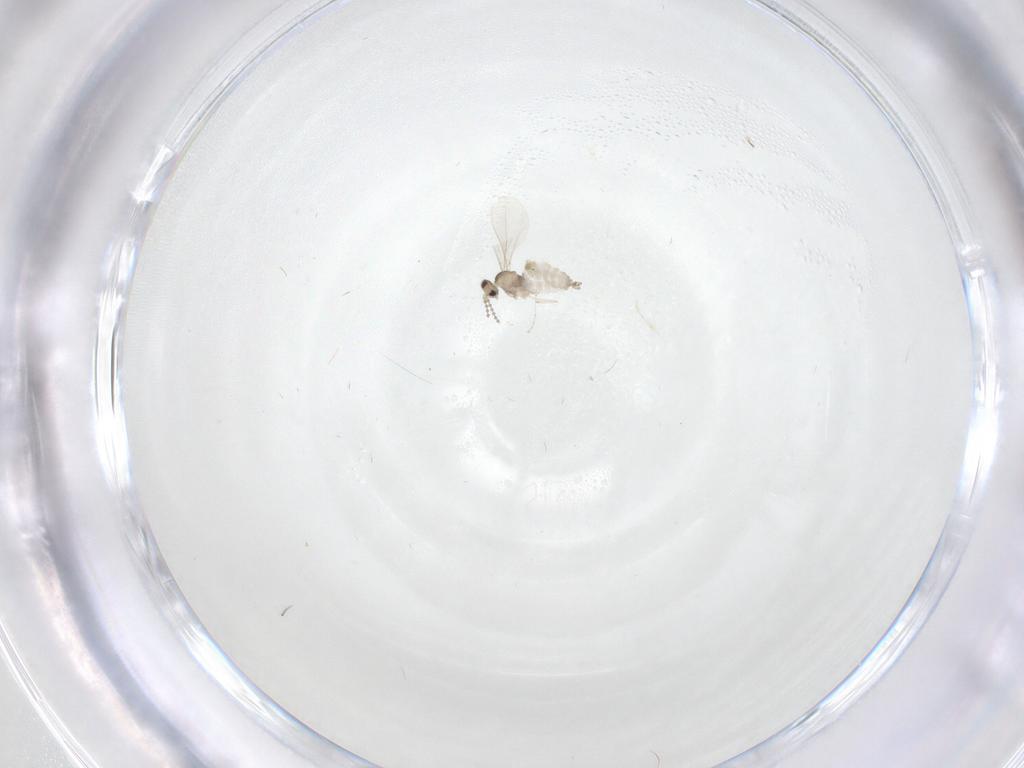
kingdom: Animalia
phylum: Arthropoda
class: Insecta
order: Diptera
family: Cecidomyiidae
